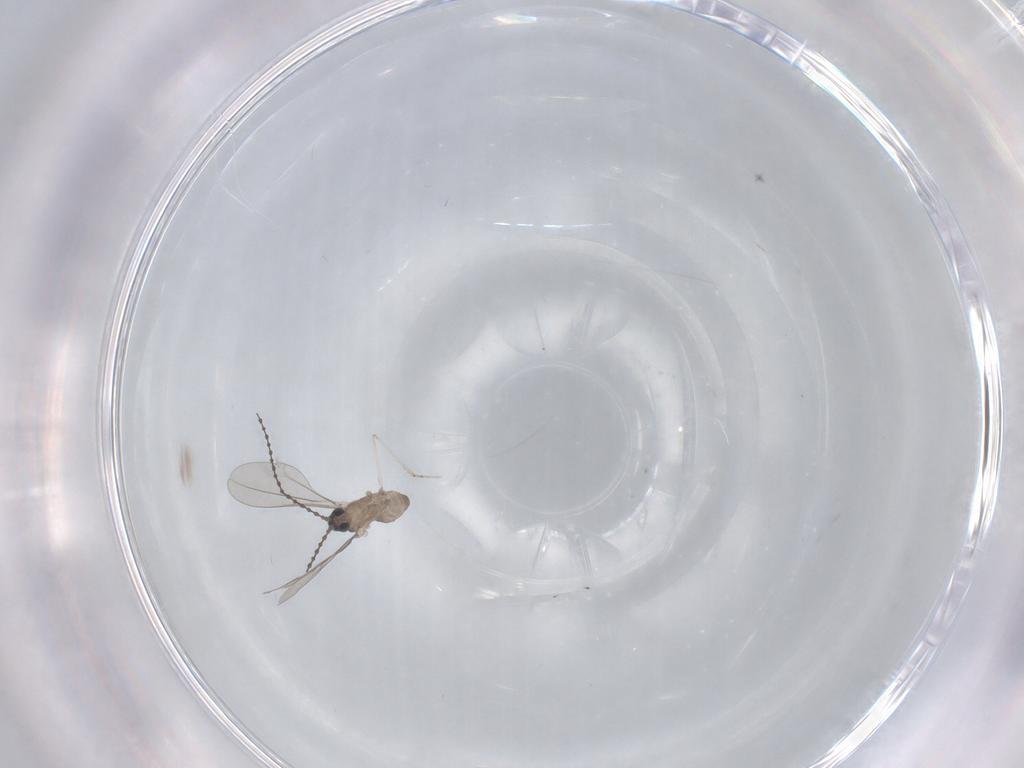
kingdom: Animalia
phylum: Arthropoda
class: Insecta
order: Diptera
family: Cecidomyiidae
